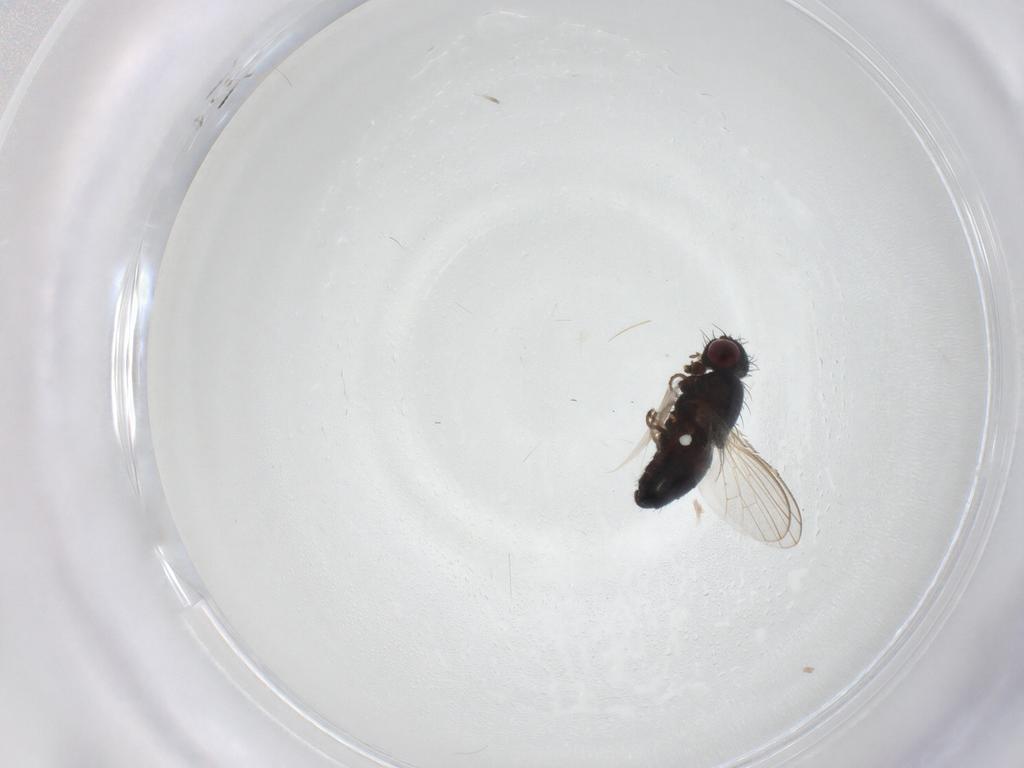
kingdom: Animalia
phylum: Arthropoda
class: Insecta
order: Diptera
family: Carnidae
